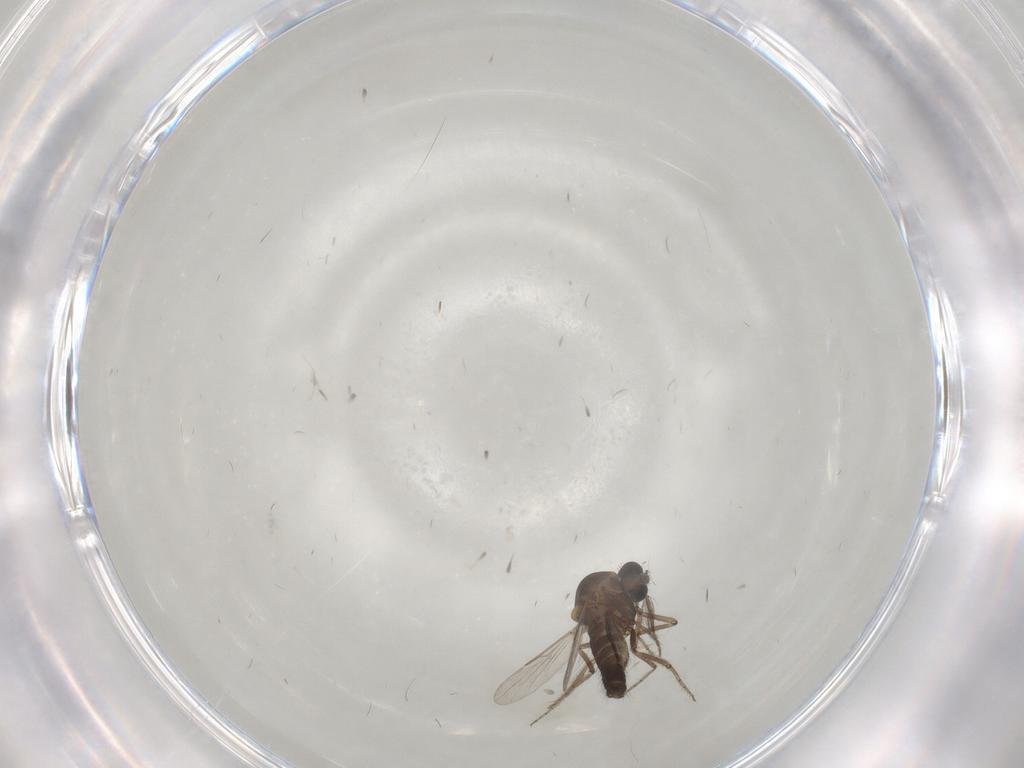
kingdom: Animalia
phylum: Arthropoda
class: Insecta
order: Diptera
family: Ceratopogonidae
